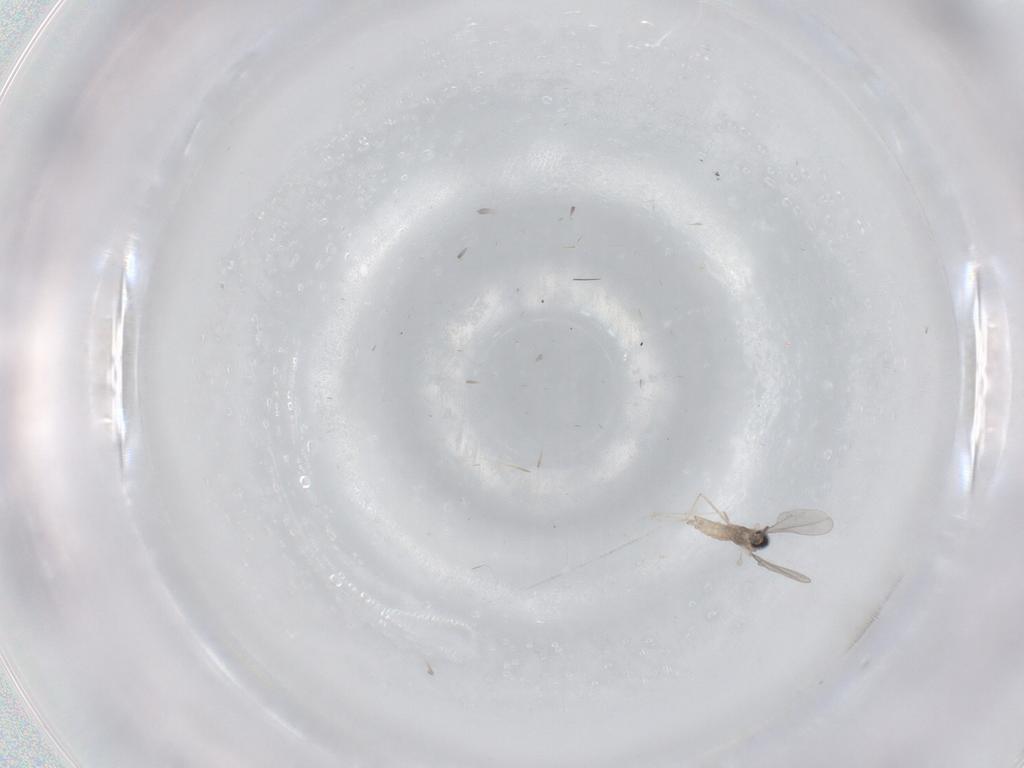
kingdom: Animalia
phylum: Arthropoda
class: Insecta
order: Diptera
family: Cecidomyiidae
